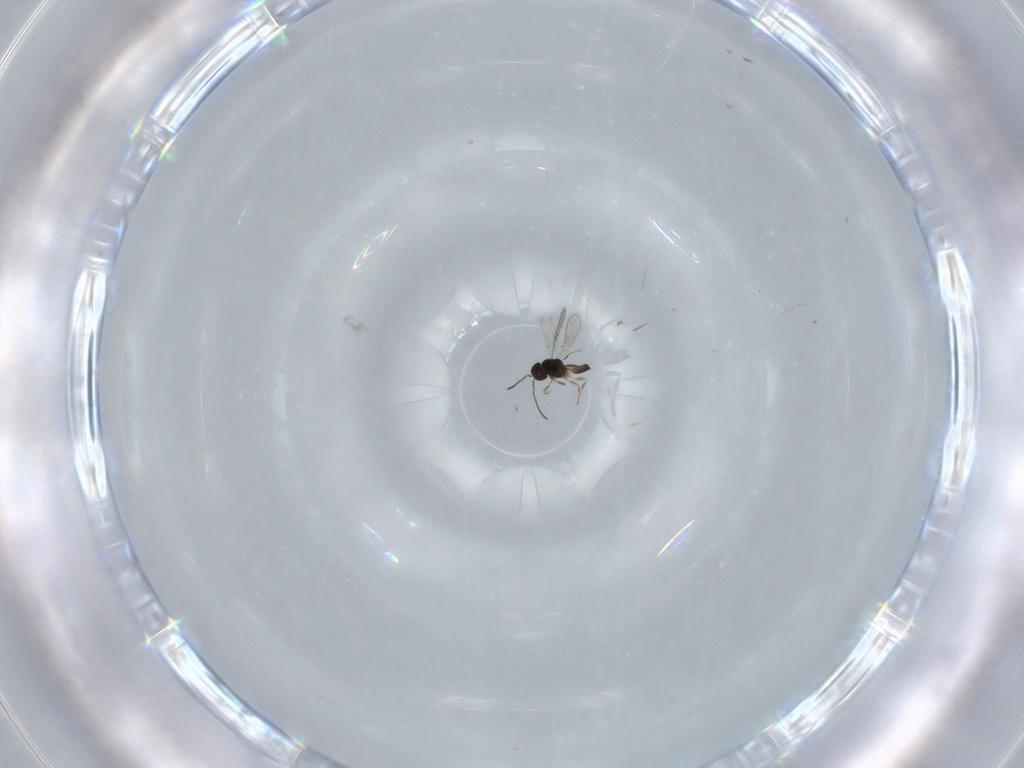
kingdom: Animalia
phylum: Arthropoda
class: Insecta
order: Hymenoptera
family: Scelionidae
